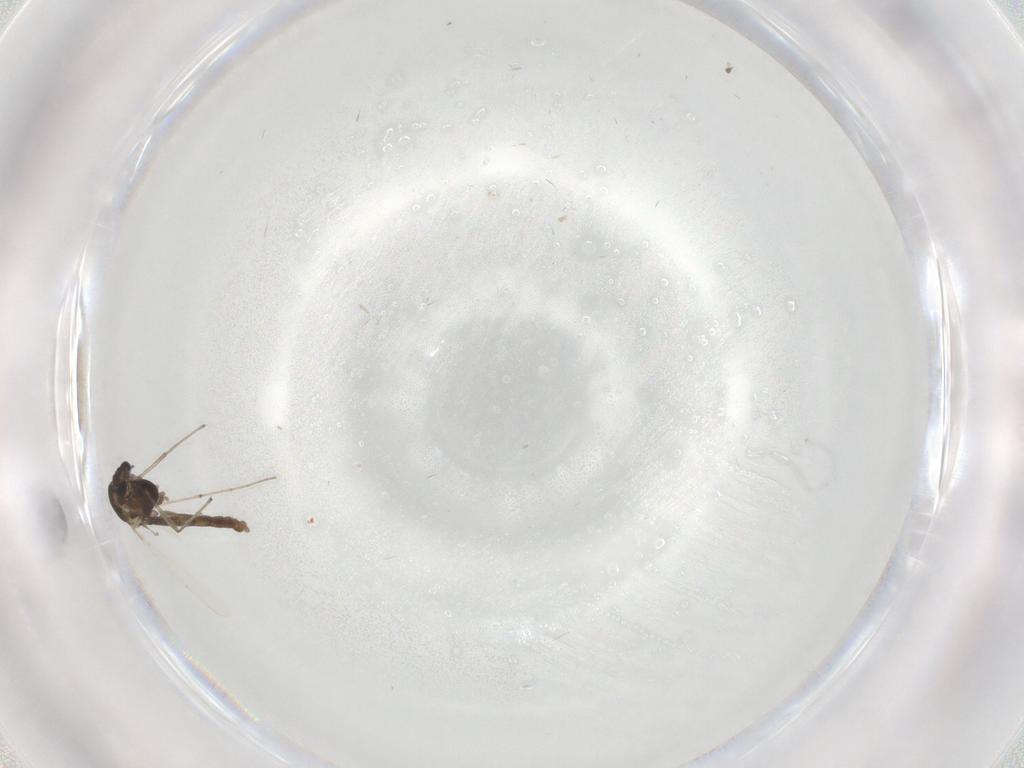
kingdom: Animalia
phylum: Arthropoda
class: Insecta
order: Diptera
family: Chironomidae
